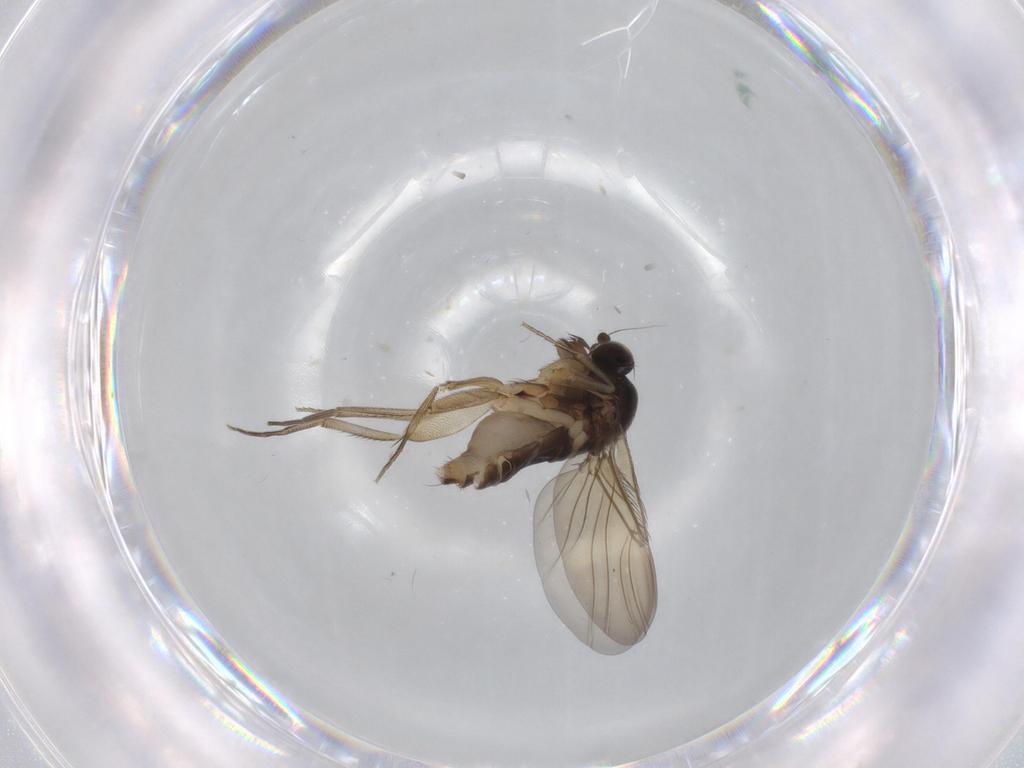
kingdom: Animalia
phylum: Arthropoda
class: Insecta
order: Diptera
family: Phoridae
